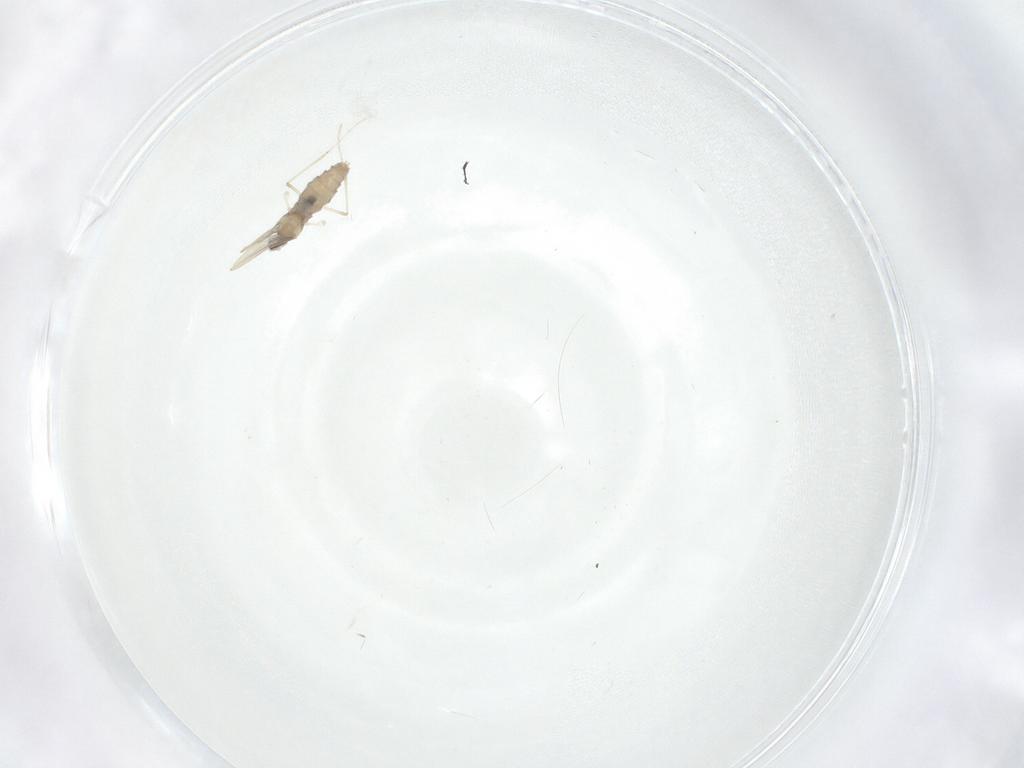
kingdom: Animalia
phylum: Arthropoda
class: Insecta
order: Diptera
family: Cecidomyiidae
